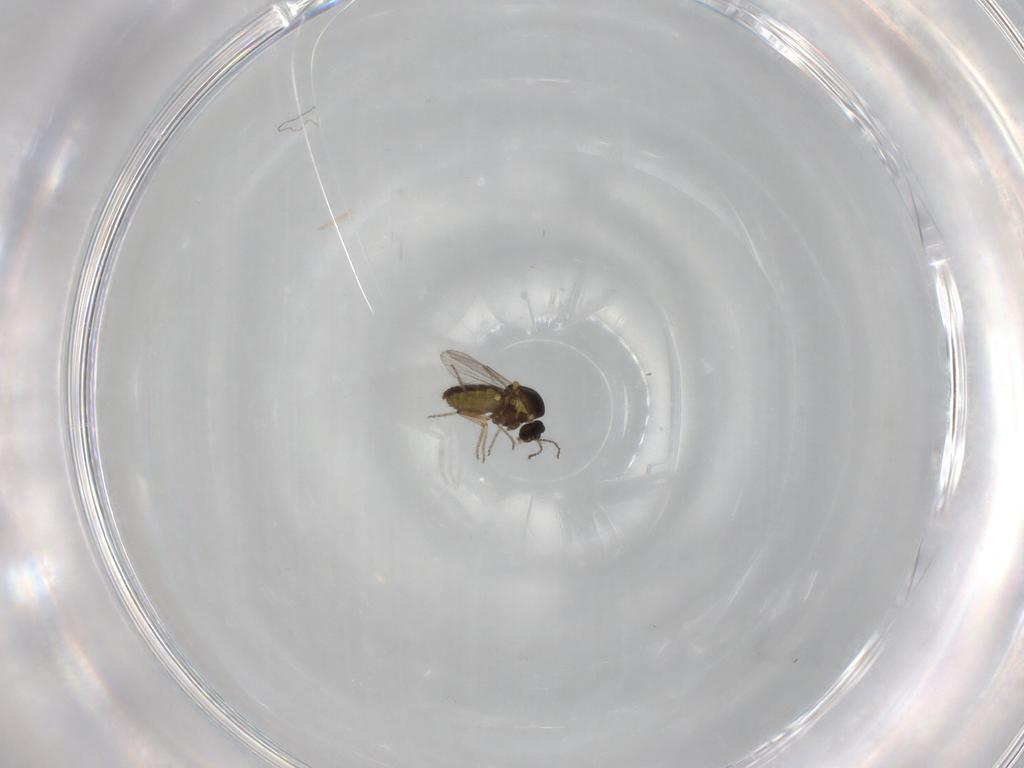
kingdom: Animalia
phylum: Arthropoda
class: Insecta
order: Diptera
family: Ceratopogonidae
